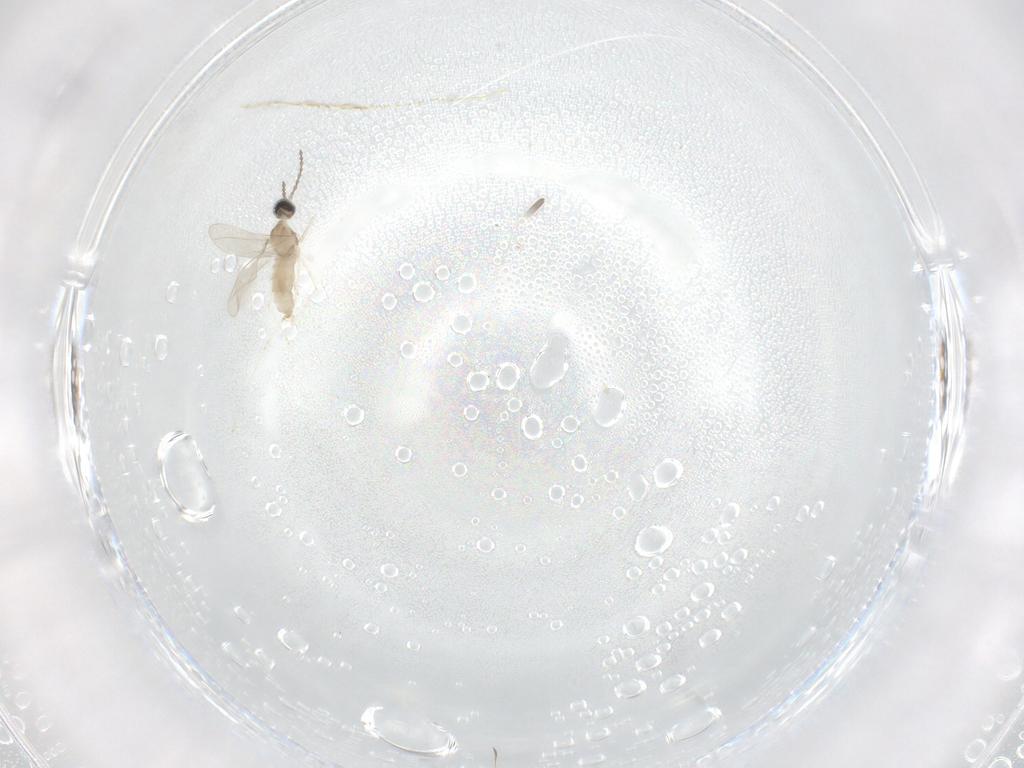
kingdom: Animalia
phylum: Arthropoda
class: Insecta
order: Diptera
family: Cecidomyiidae
